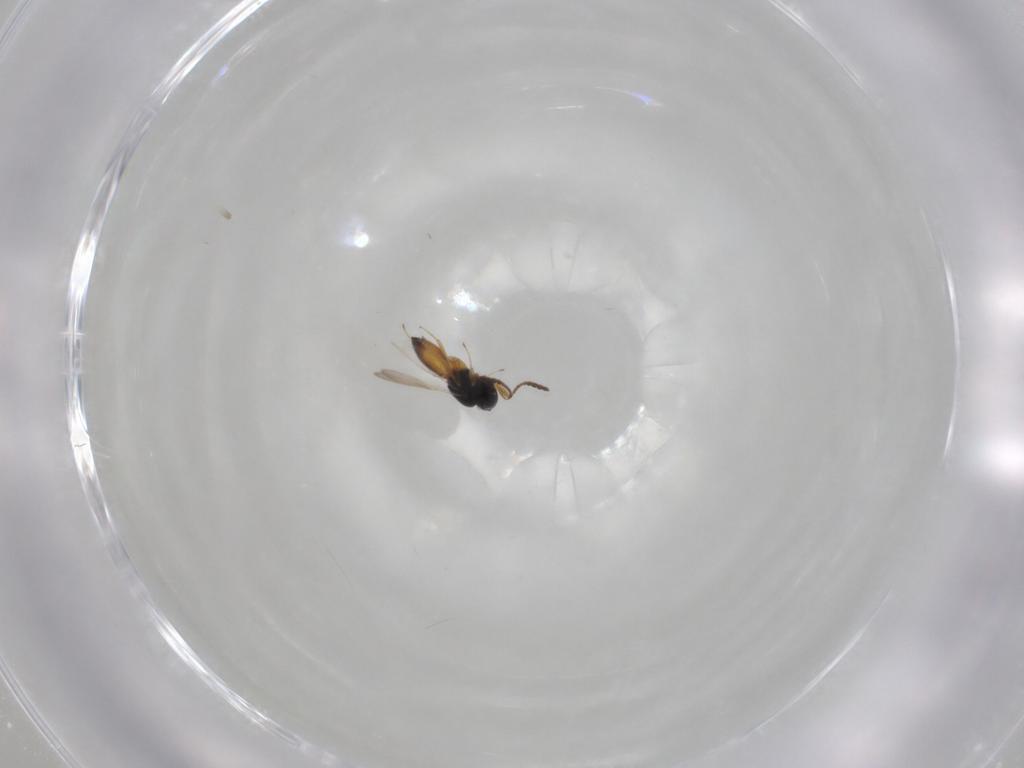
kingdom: Animalia
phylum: Arthropoda
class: Insecta
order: Hymenoptera
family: Scelionidae
